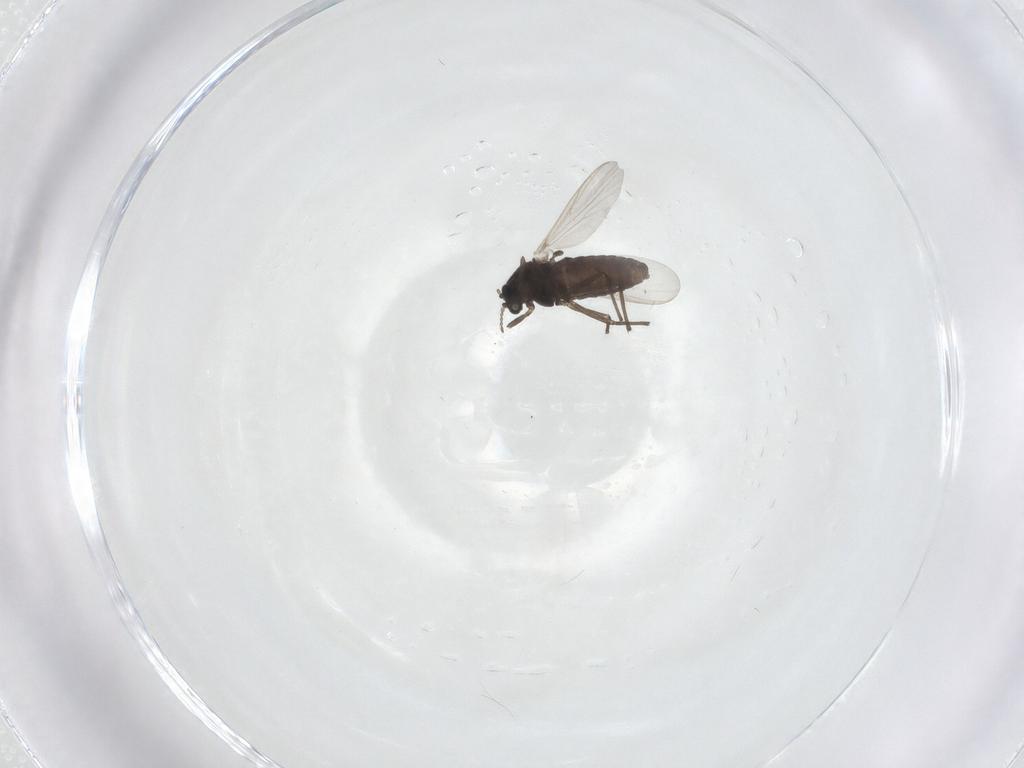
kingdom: Animalia
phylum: Arthropoda
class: Insecta
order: Diptera
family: Chironomidae
